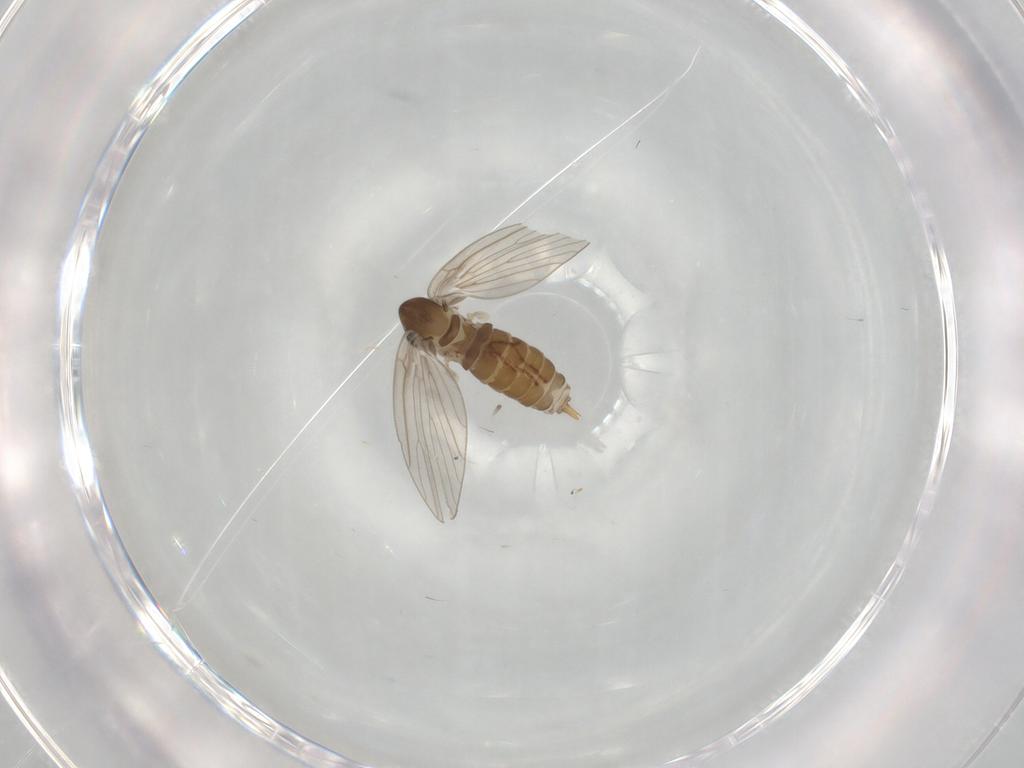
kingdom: Animalia
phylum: Arthropoda
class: Insecta
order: Diptera
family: Psychodidae
